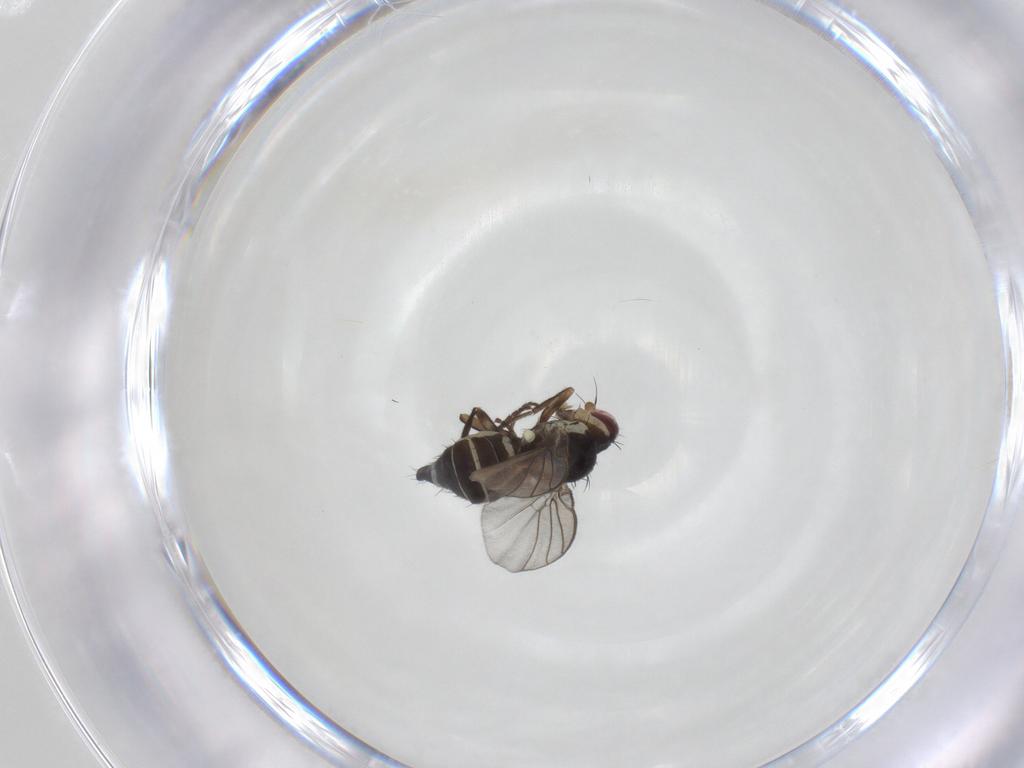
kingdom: Animalia
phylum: Arthropoda
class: Insecta
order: Diptera
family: Agromyzidae
